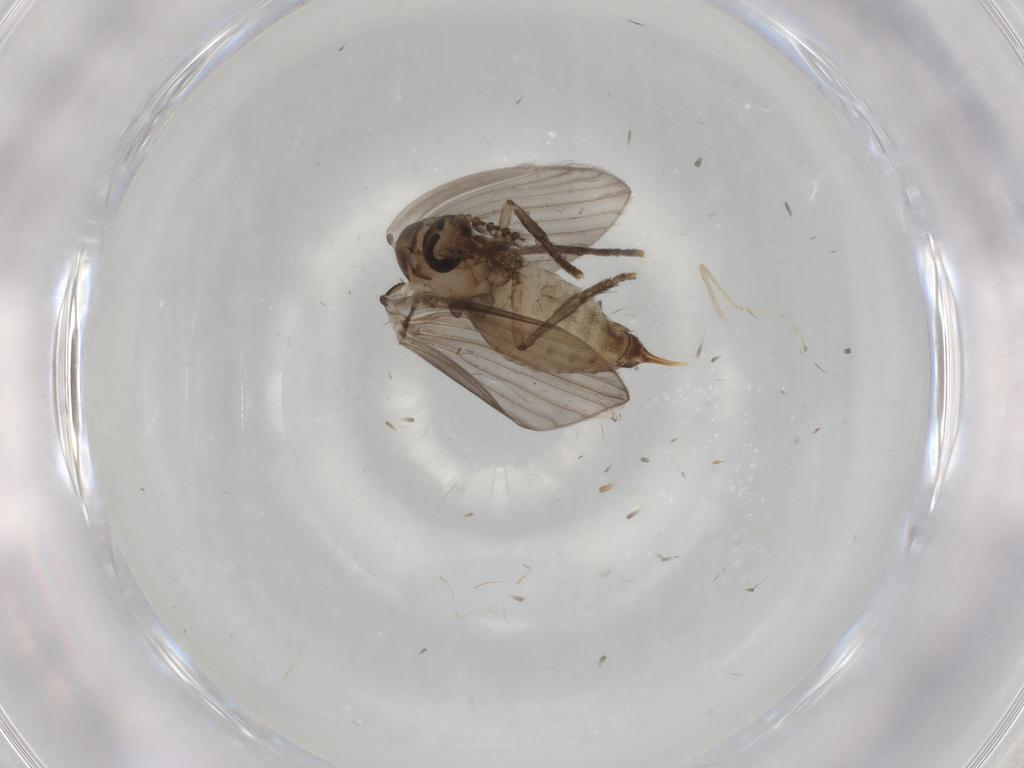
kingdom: Animalia
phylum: Arthropoda
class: Insecta
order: Diptera
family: Psychodidae
